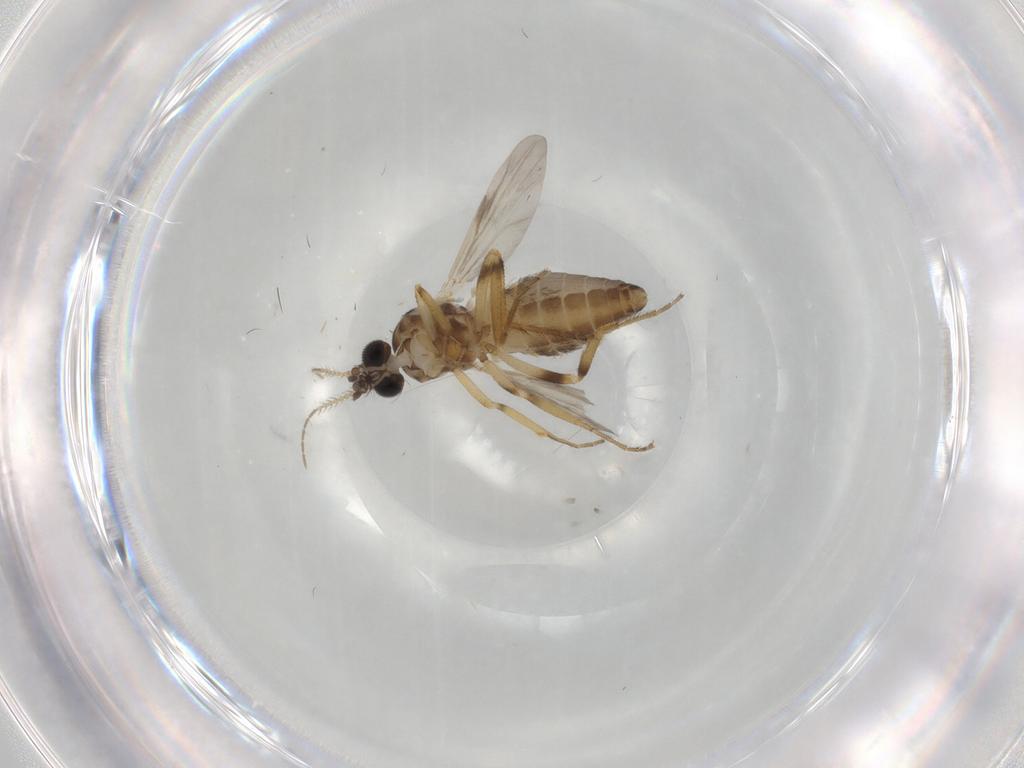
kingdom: Animalia
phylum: Arthropoda
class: Insecta
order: Diptera
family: Ceratopogonidae
